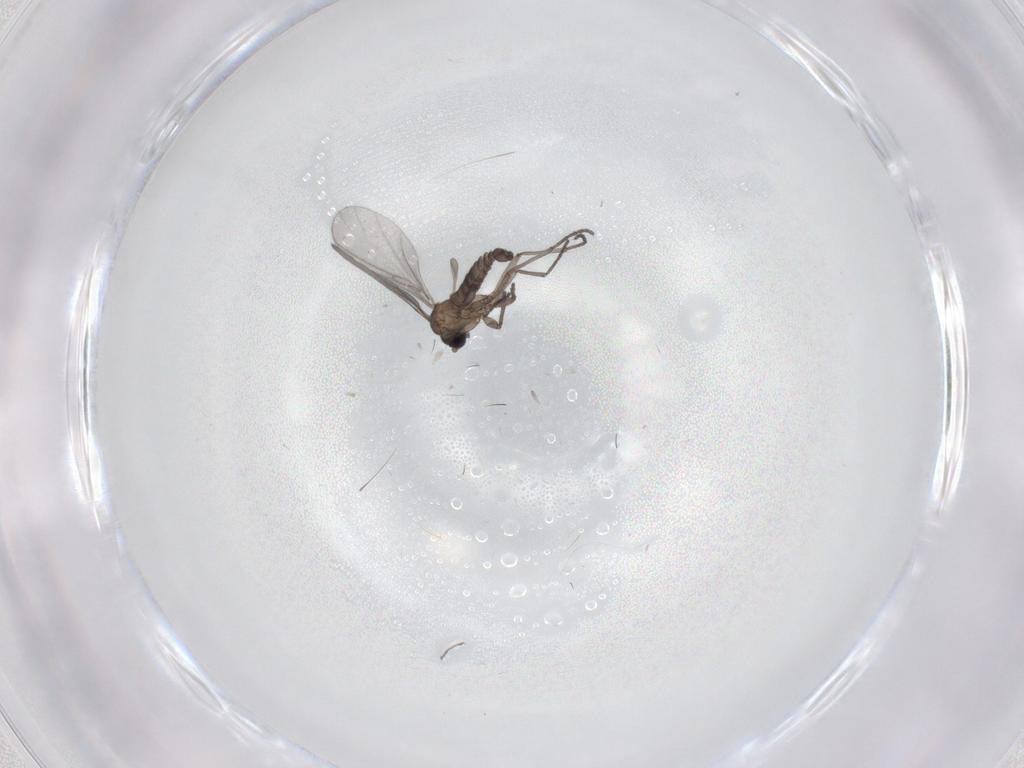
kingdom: Animalia
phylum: Arthropoda
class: Insecta
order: Diptera
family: Sciaridae
